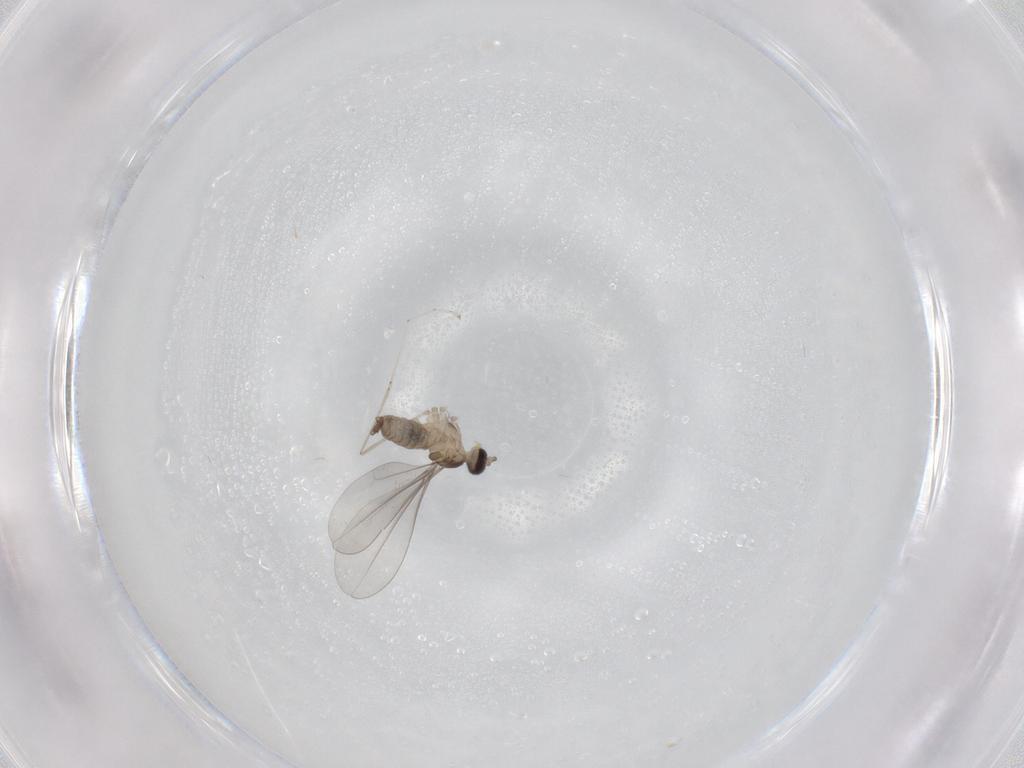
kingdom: Animalia
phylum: Arthropoda
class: Insecta
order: Diptera
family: Cecidomyiidae
